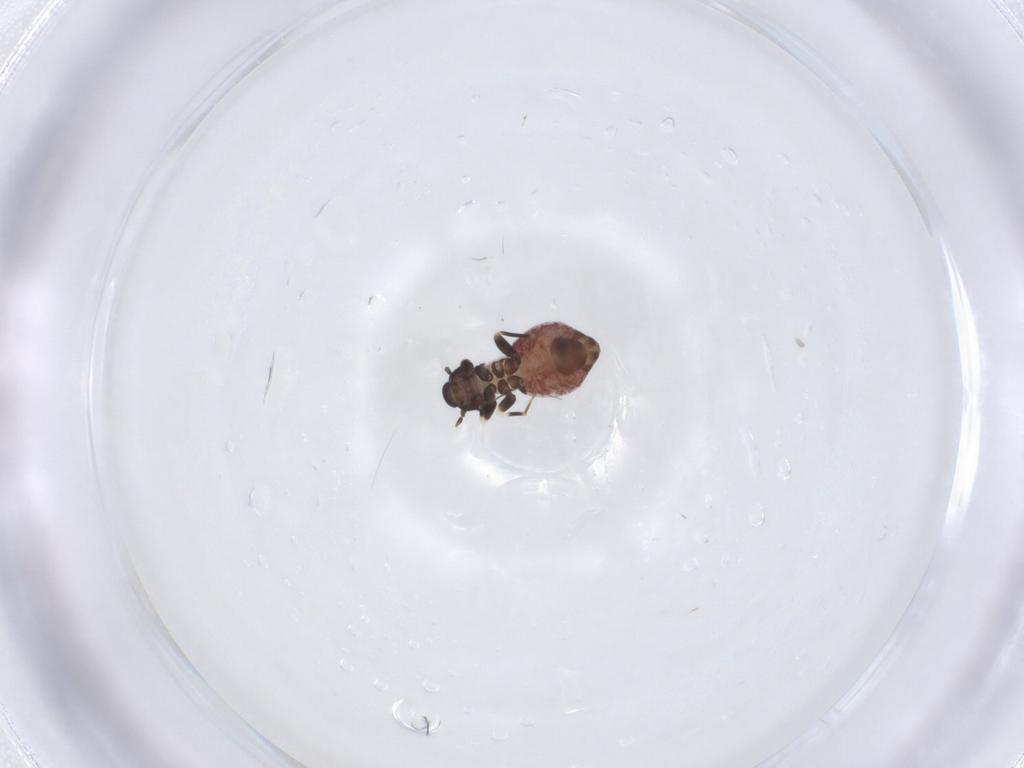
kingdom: Animalia
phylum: Arthropoda
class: Insecta
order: Psocodea
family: Lepidopsocidae
